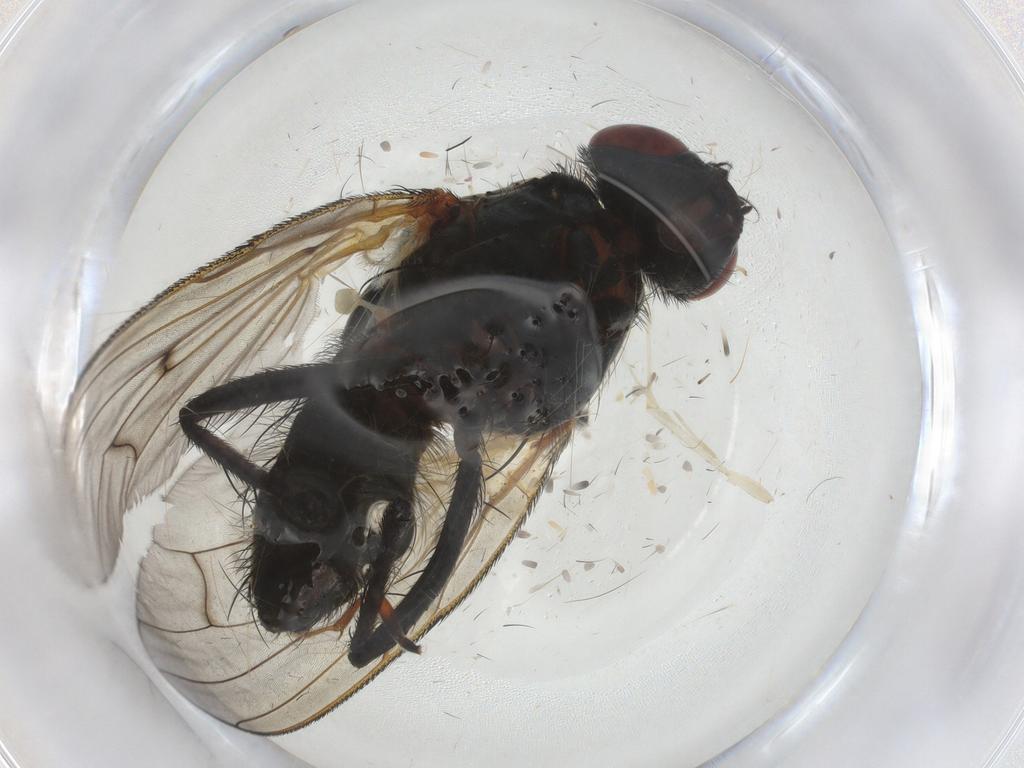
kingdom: Animalia
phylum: Arthropoda
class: Insecta
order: Diptera
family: Anthomyiidae
